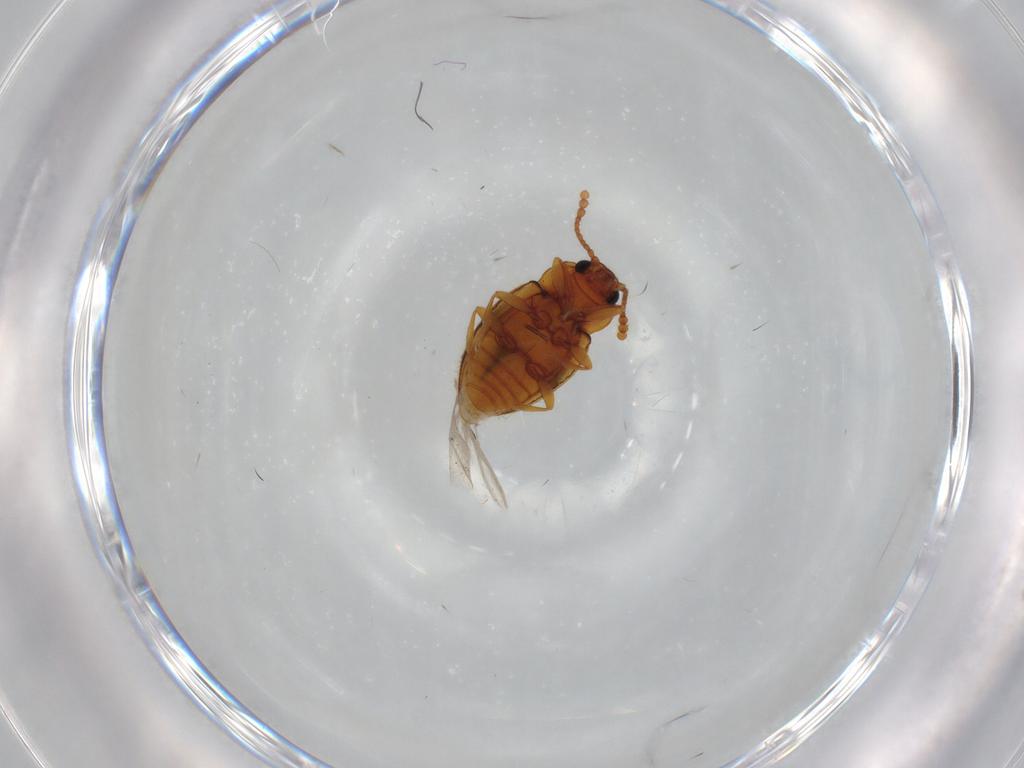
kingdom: Animalia
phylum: Arthropoda
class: Insecta
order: Coleoptera
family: Erotylidae
